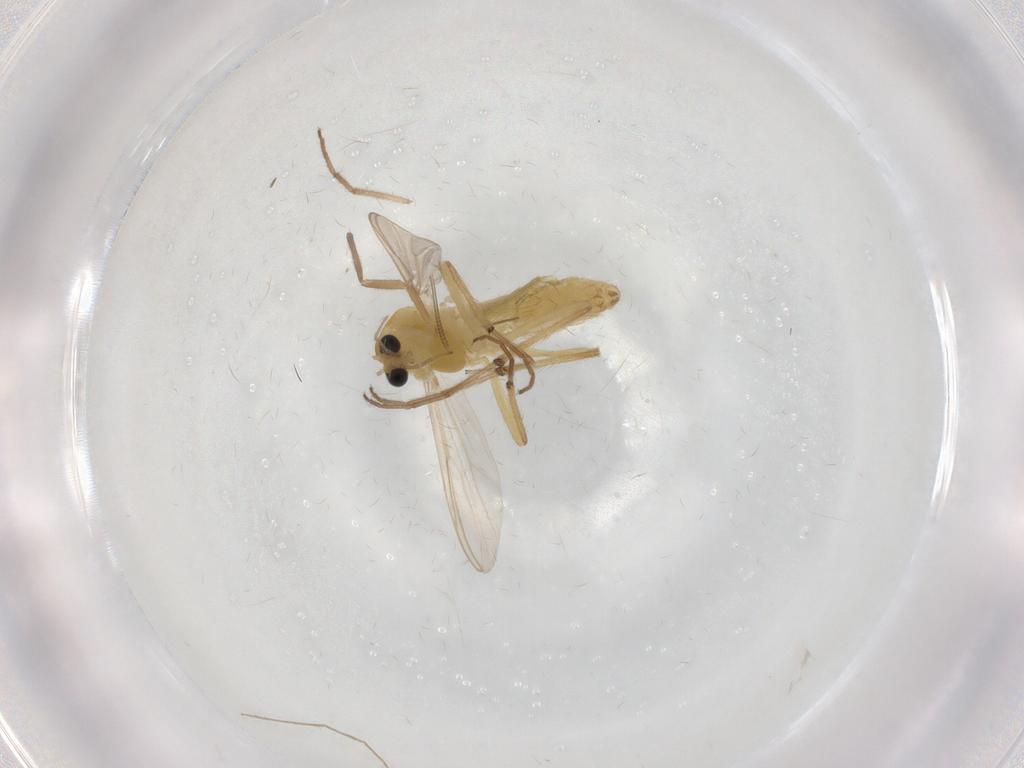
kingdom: Animalia
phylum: Arthropoda
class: Insecta
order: Diptera
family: Chironomidae
